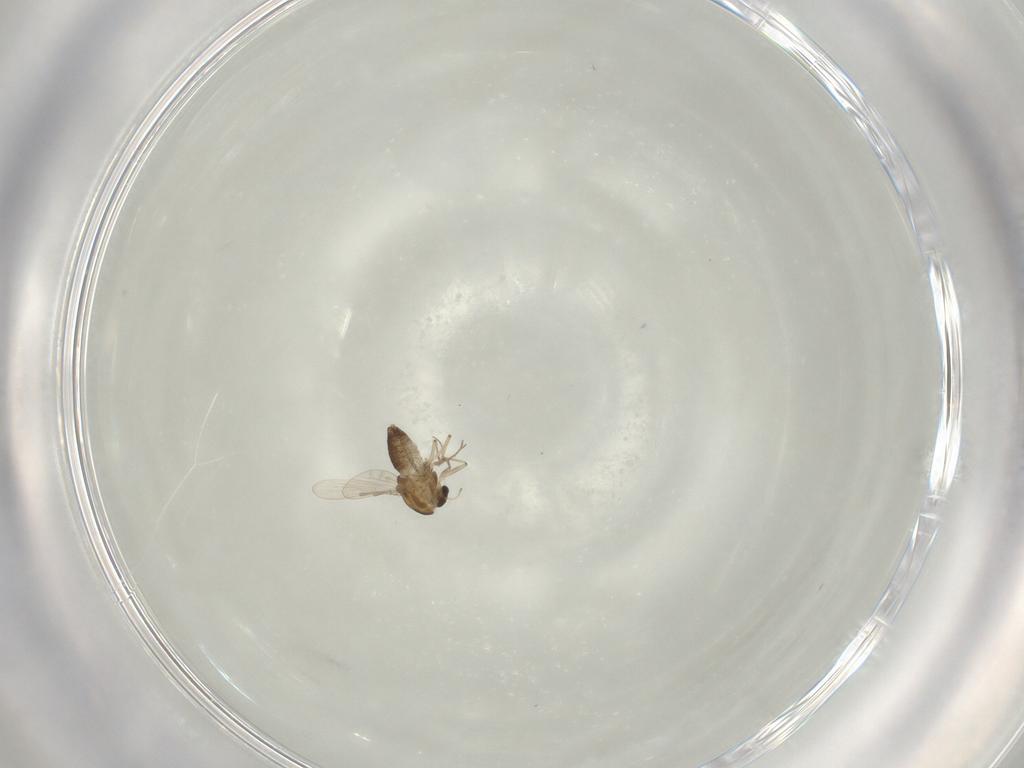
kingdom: Animalia
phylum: Arthropoda
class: Insecta
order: Diptera
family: Chironomidae
